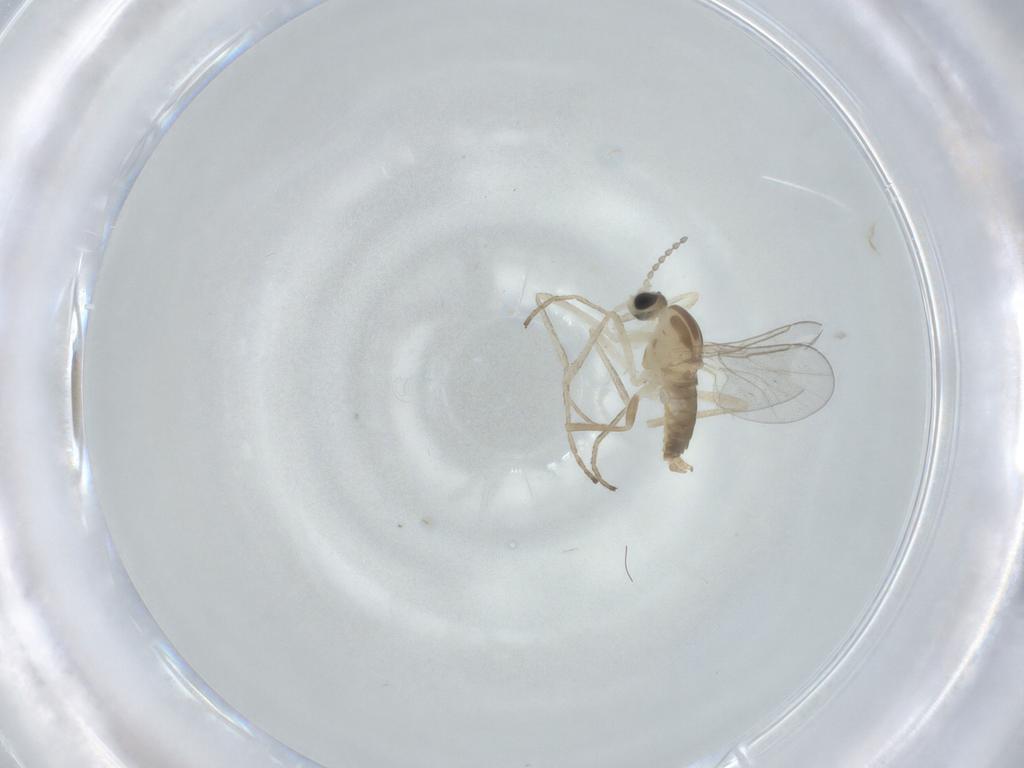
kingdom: Animalia
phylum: Arthropoda
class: Insecta
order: Diptera
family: Cecidomyiidae
